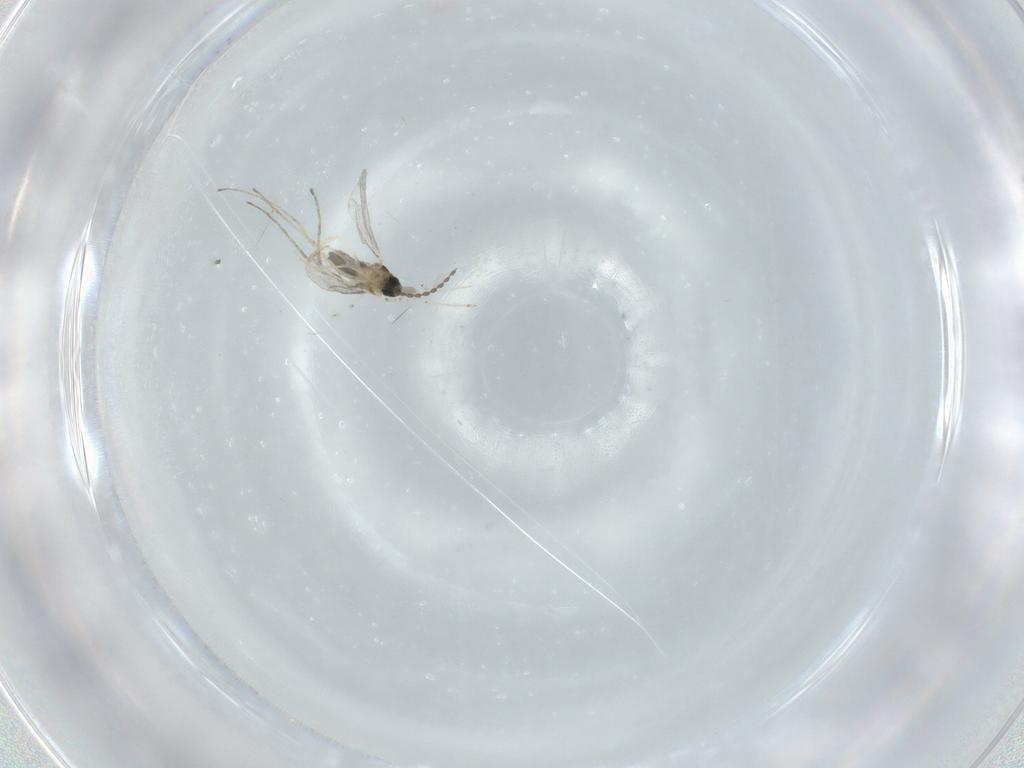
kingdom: Animalia
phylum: Arthropoda
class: Insecta
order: Diptera
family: Cecidomyiidae
